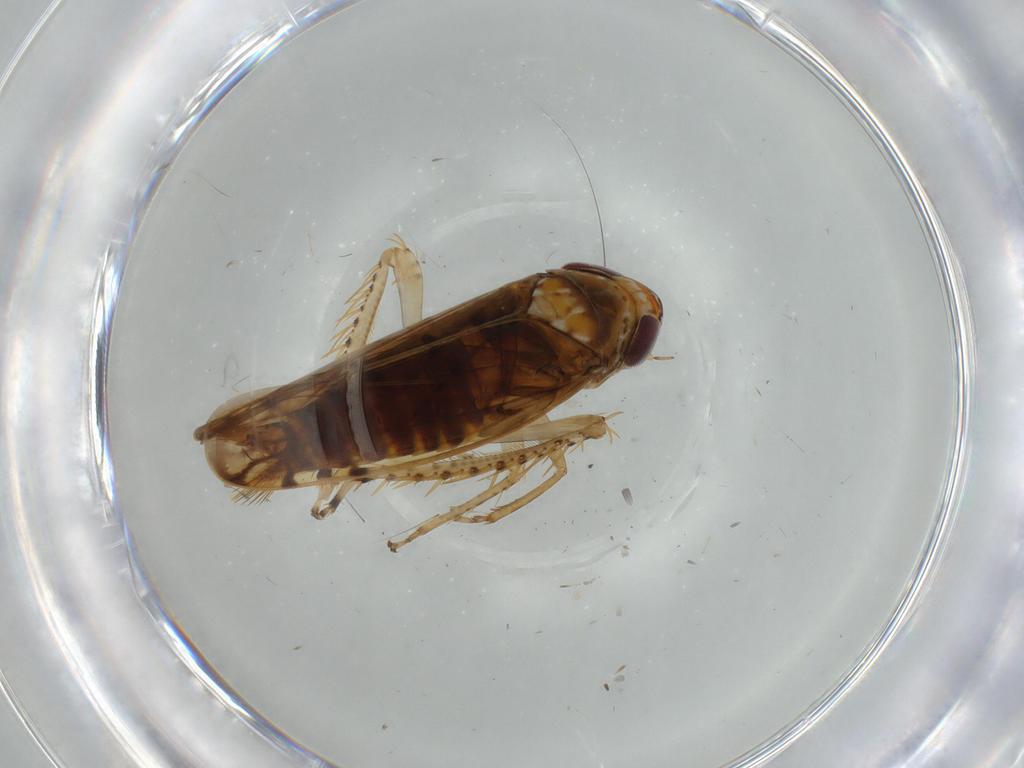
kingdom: Animalia
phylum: Arthropoda
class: Insecta
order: Hemiptera
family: Cicadellidae
